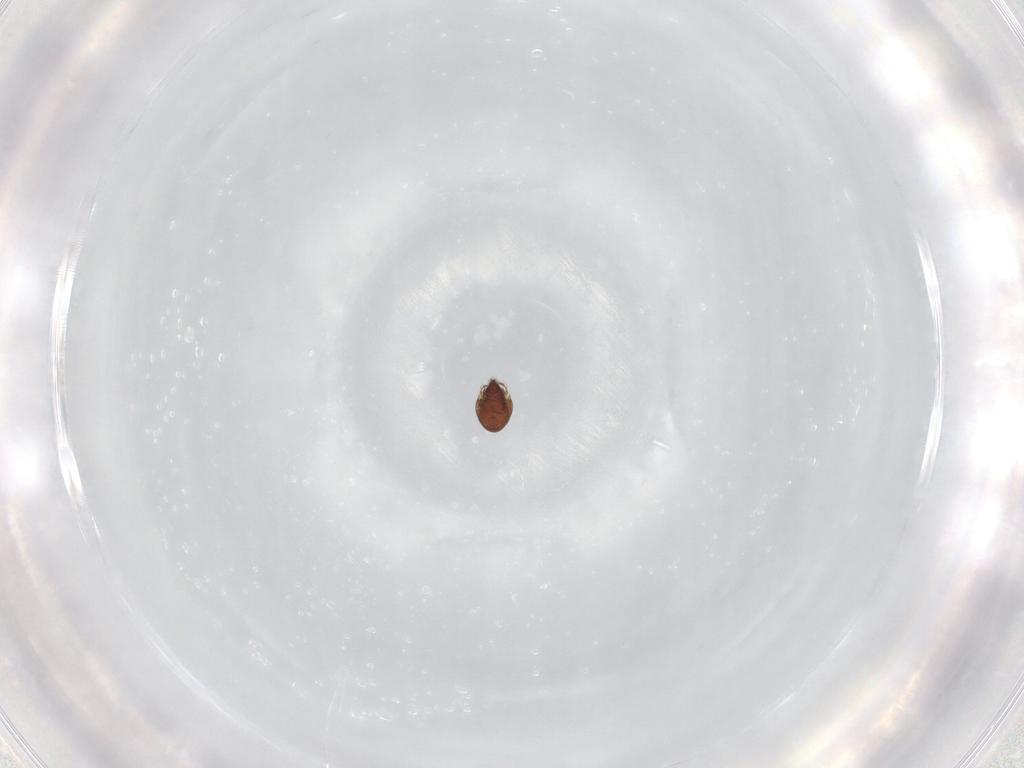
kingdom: Animalia
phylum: Arthropoda
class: Arachnida
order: Sarcoptiformes
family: Ceratozetidae
